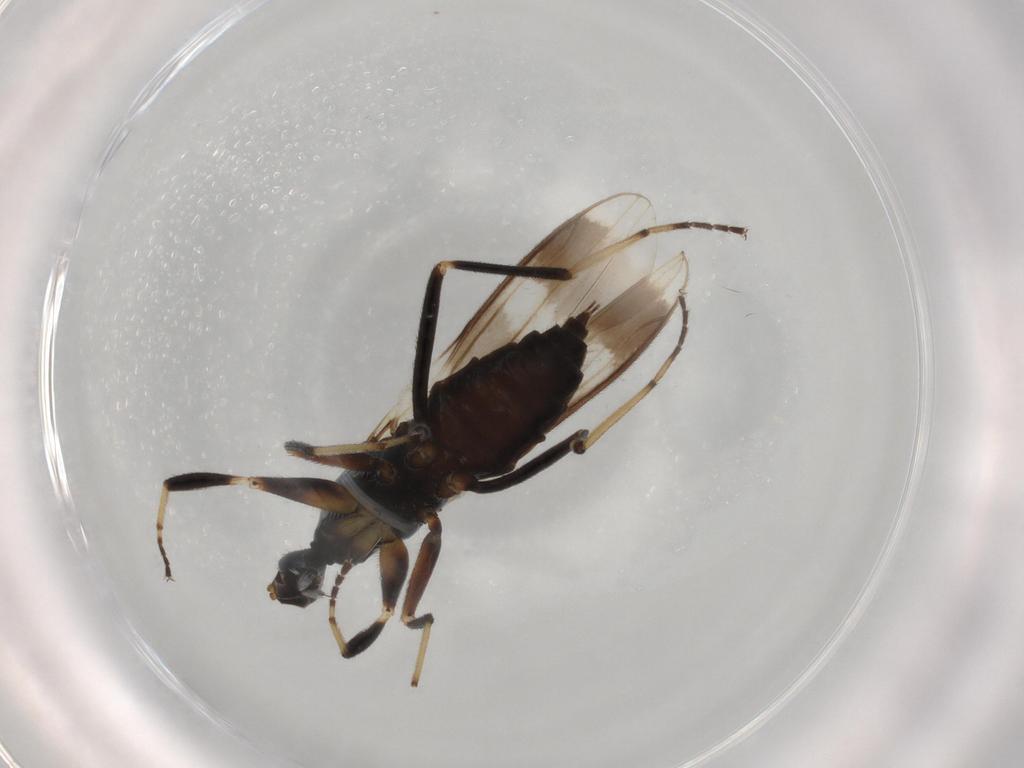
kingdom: Animalia
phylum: Arthropoda
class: Insecta
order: Diptera
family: Hybotidae
